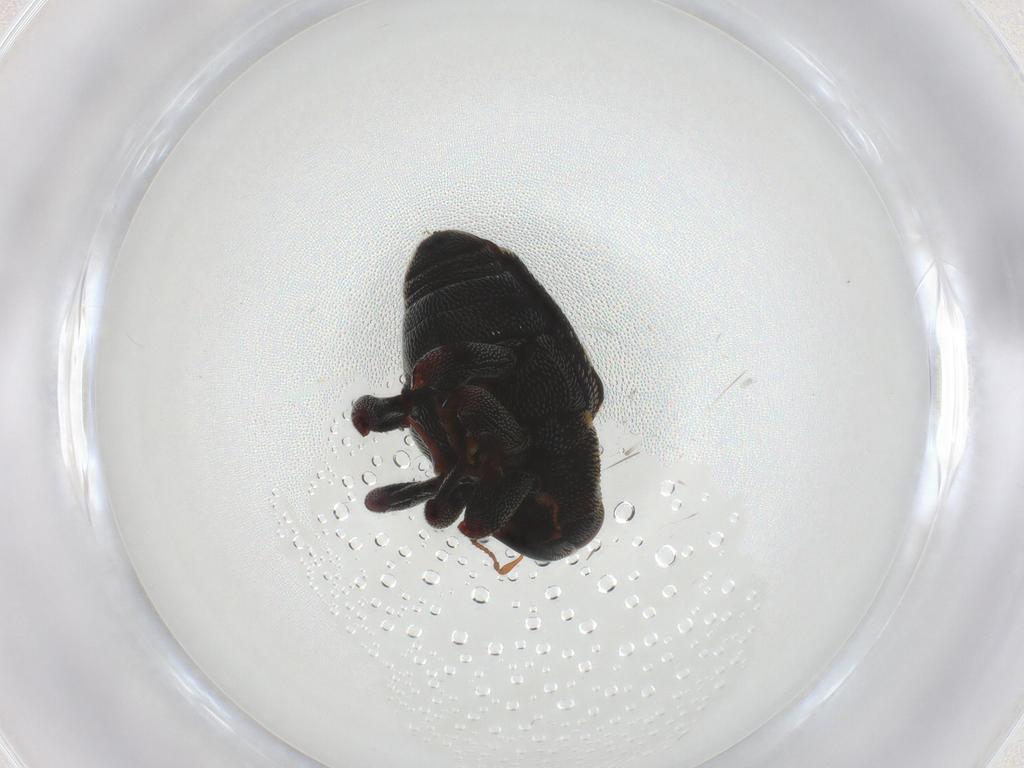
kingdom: Animalia
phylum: Arthropoda
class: Insecta
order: Coleoptera
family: Curculionidae
